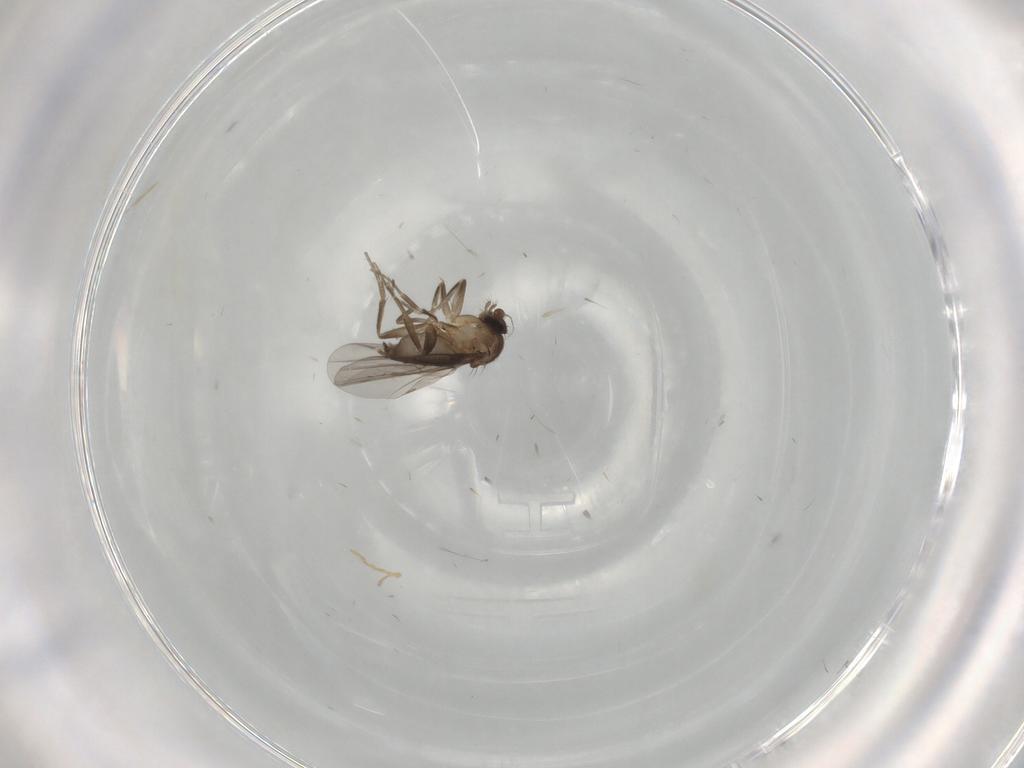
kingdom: Animalia
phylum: Arthropoda
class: Insecta
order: Diptera
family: Phoridae
